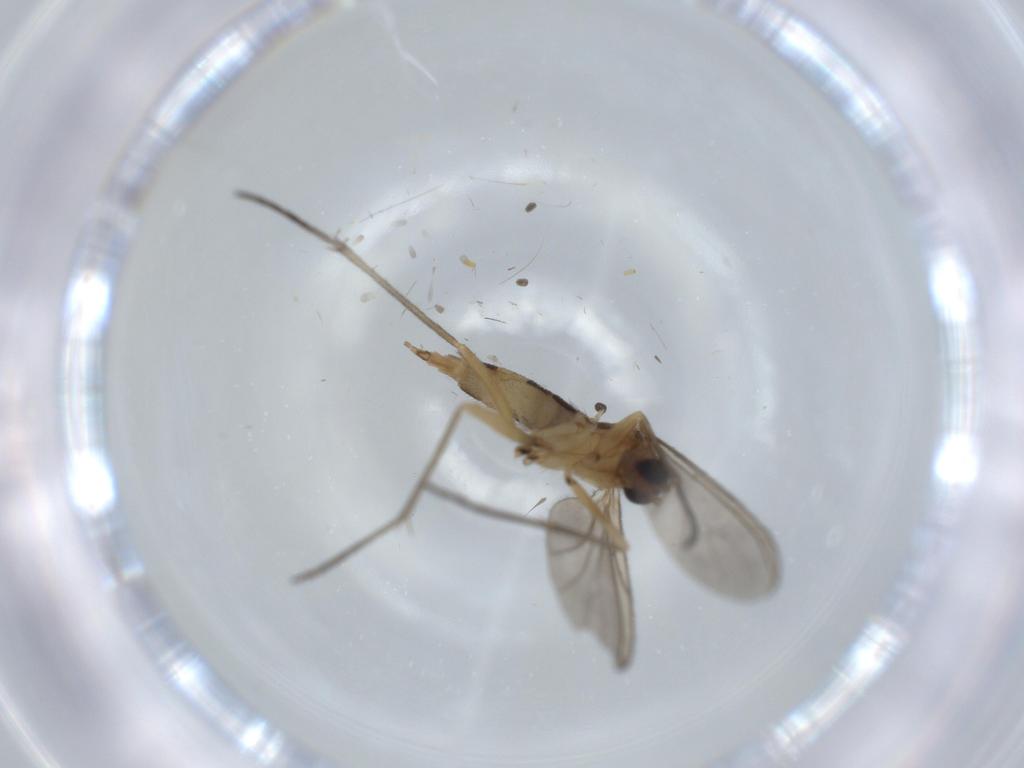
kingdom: Animalia
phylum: Arthropoda
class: Insecta
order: Diptera
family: Sciaridae
